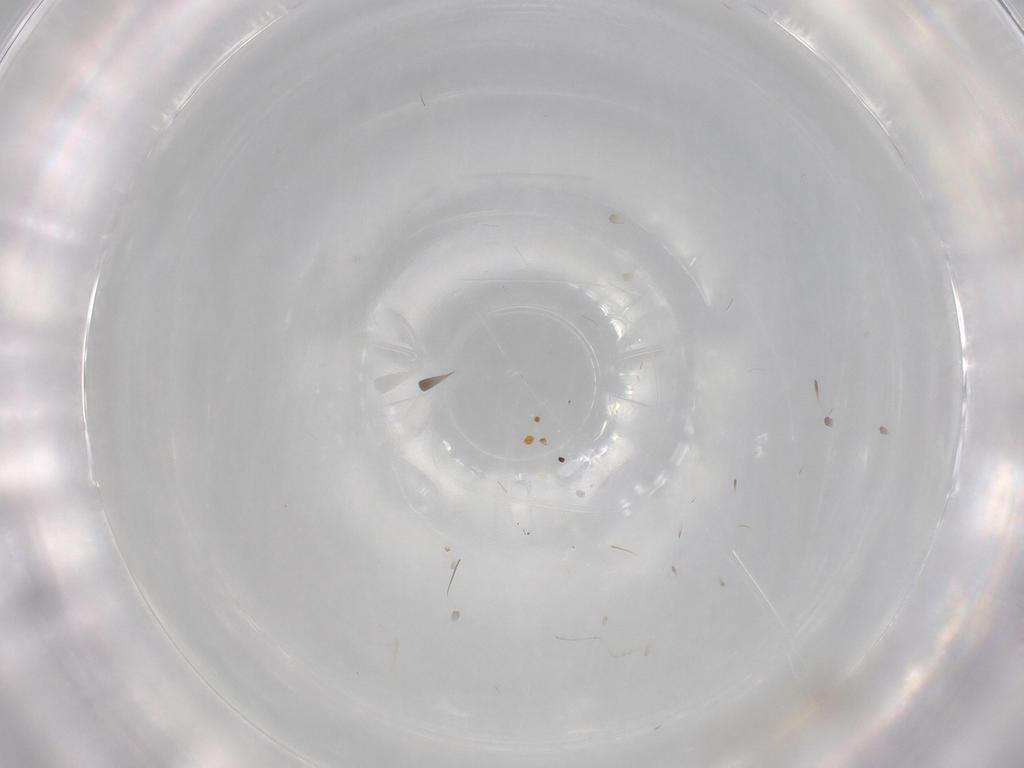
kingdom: Animalia
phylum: Arthropoda
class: Insecta
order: Diptera
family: Cecidomyiidae
